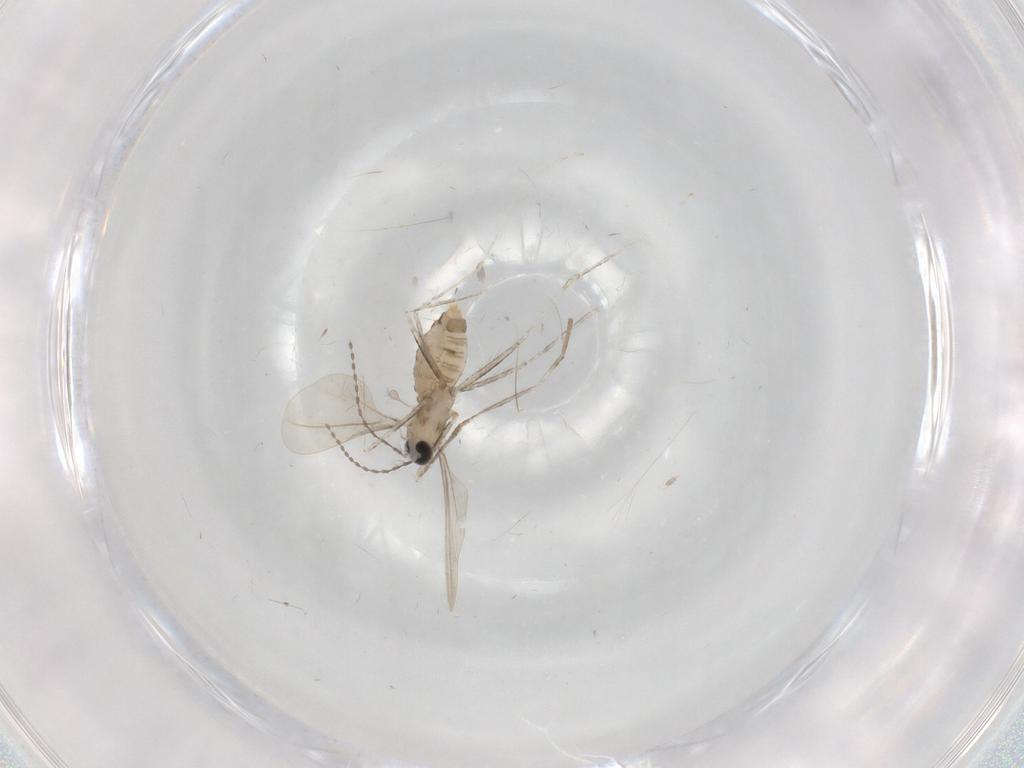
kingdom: Animalia
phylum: Arthropoda
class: Insecta
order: Diptera
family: Cecidomyiidae
